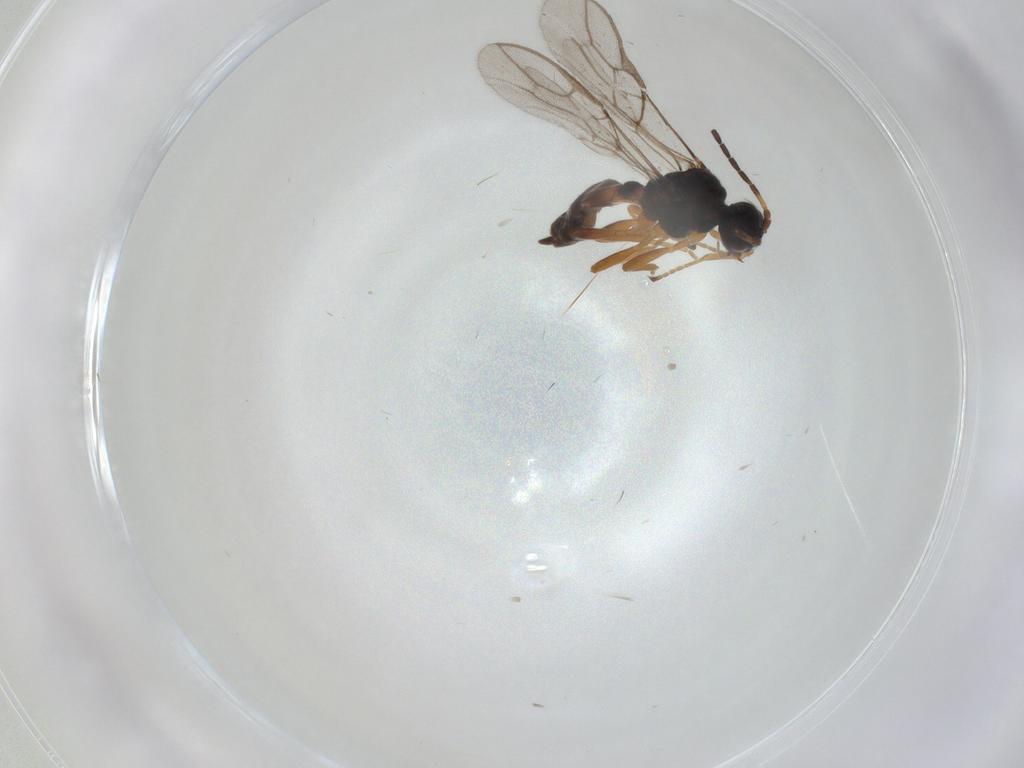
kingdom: Animalia
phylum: Arthropoda
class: Insecta
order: Hymenoptera
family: Braconidae
